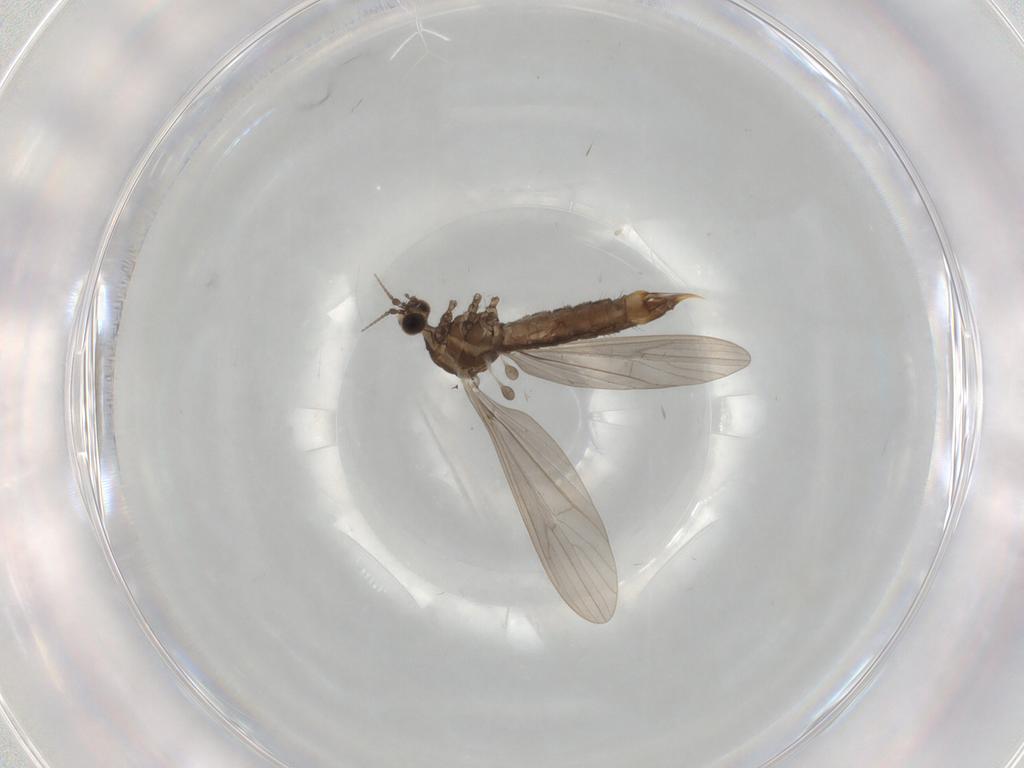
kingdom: Animalia
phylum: Arthropoda
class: Insecta
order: Diptera
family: Limoniidae
